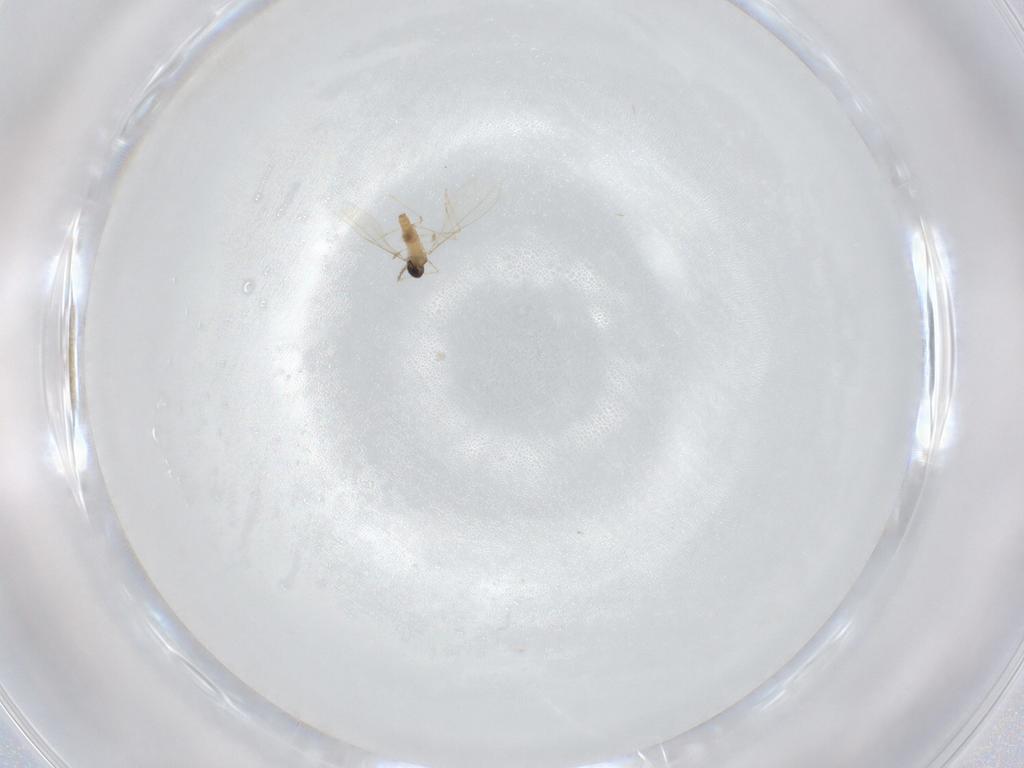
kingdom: Animalia
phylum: Arthropoda
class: Insecta
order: Diptera
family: Cecidomyiidae
